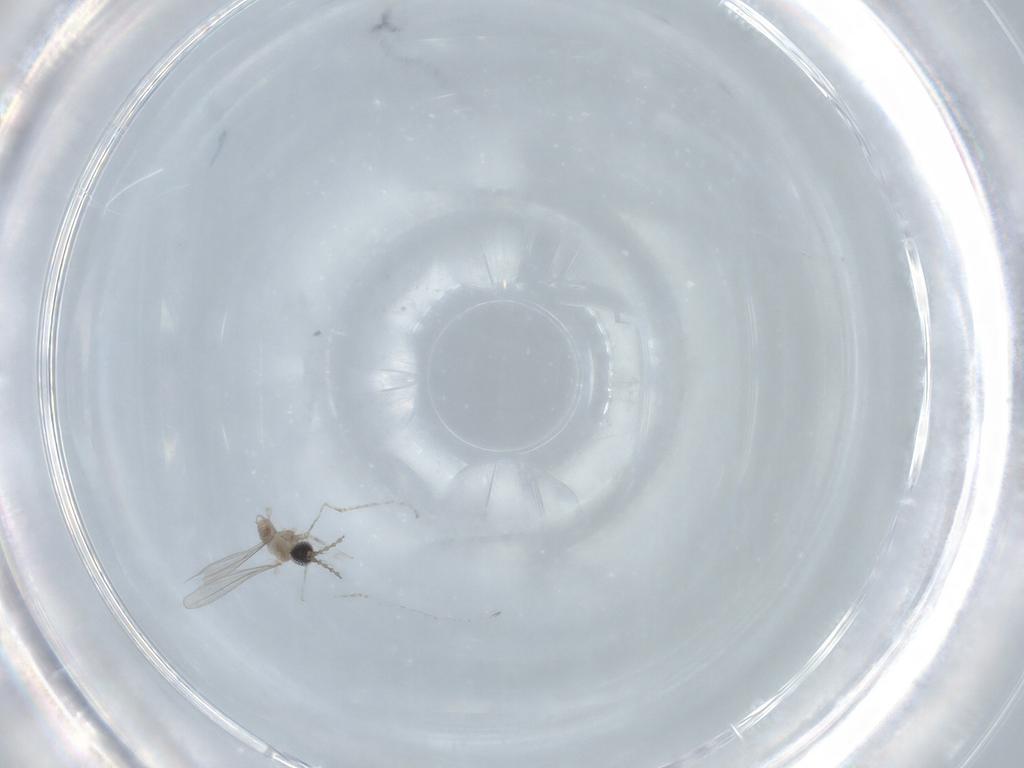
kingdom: Animalia
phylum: Arthropoda
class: Insecta
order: Diptera
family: Cecidomyiidae
